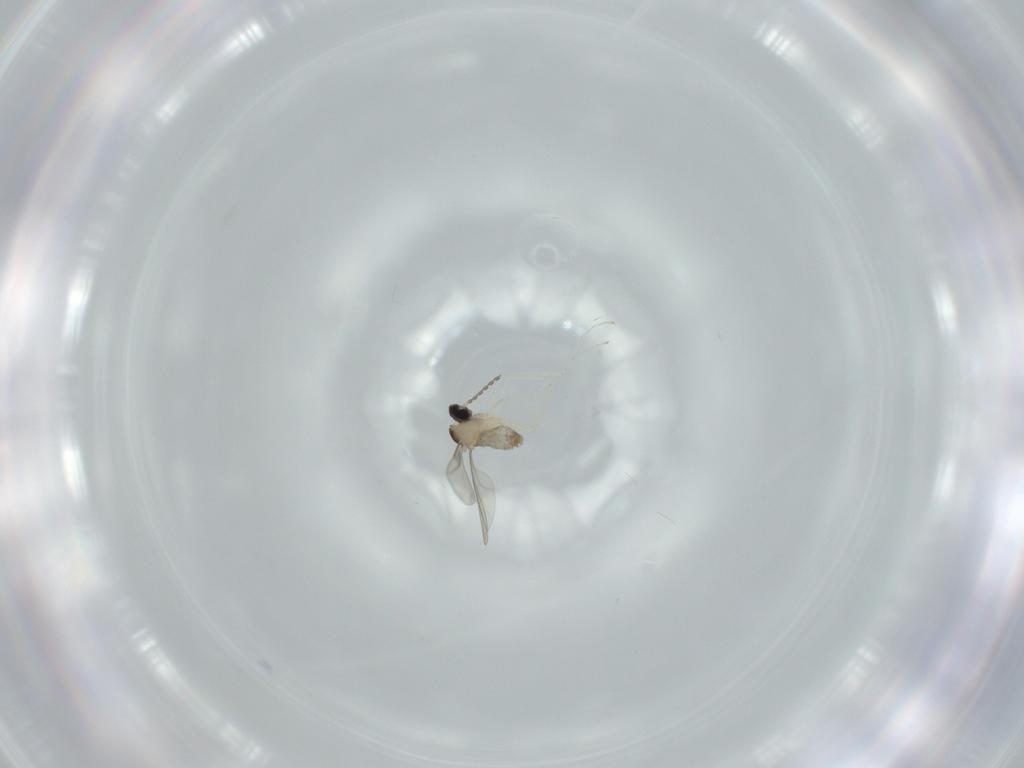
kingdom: Animalia
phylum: Arthropoda
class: Insecta
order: Diptera
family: Cecidomyiidae
